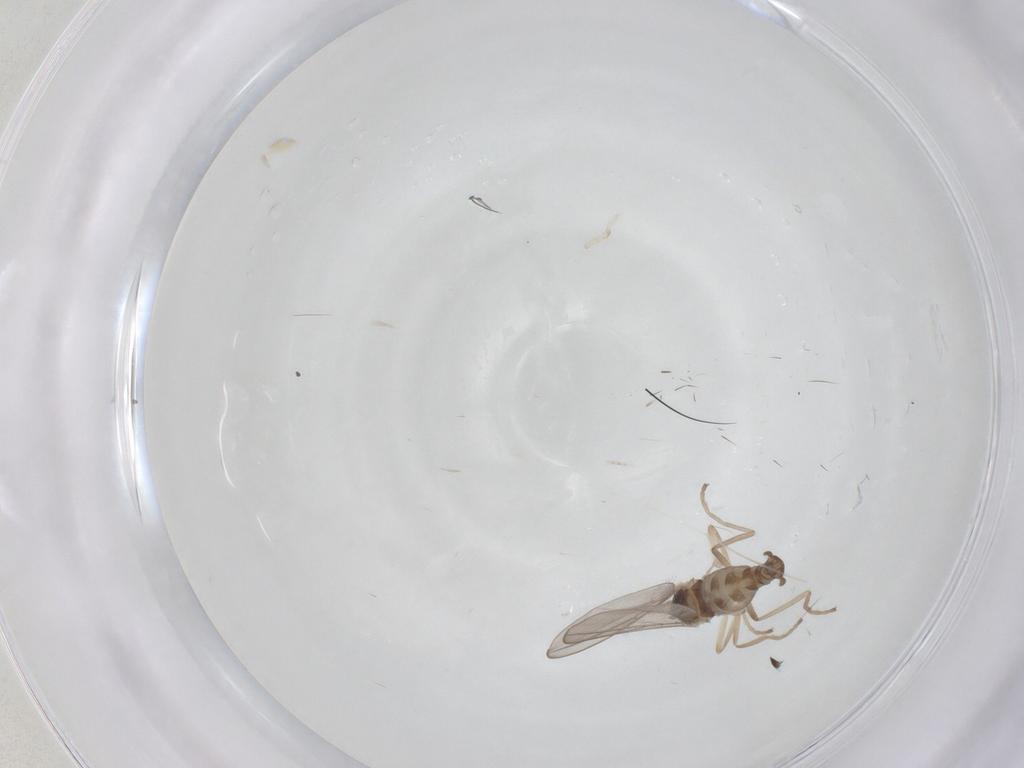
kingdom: Animalia
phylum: Arthropoda
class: Insecta
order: Diptera
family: Mycetophilidae
